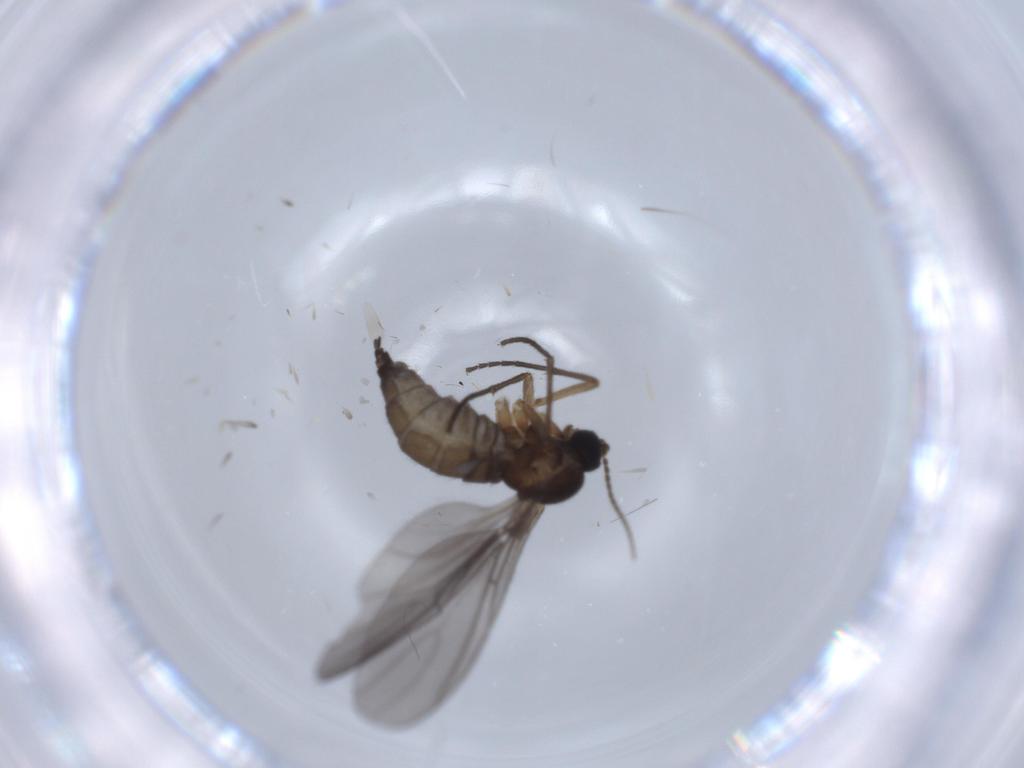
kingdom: Animalia
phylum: Arthropoda
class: Insecta
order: Diptera
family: Sciaridae
